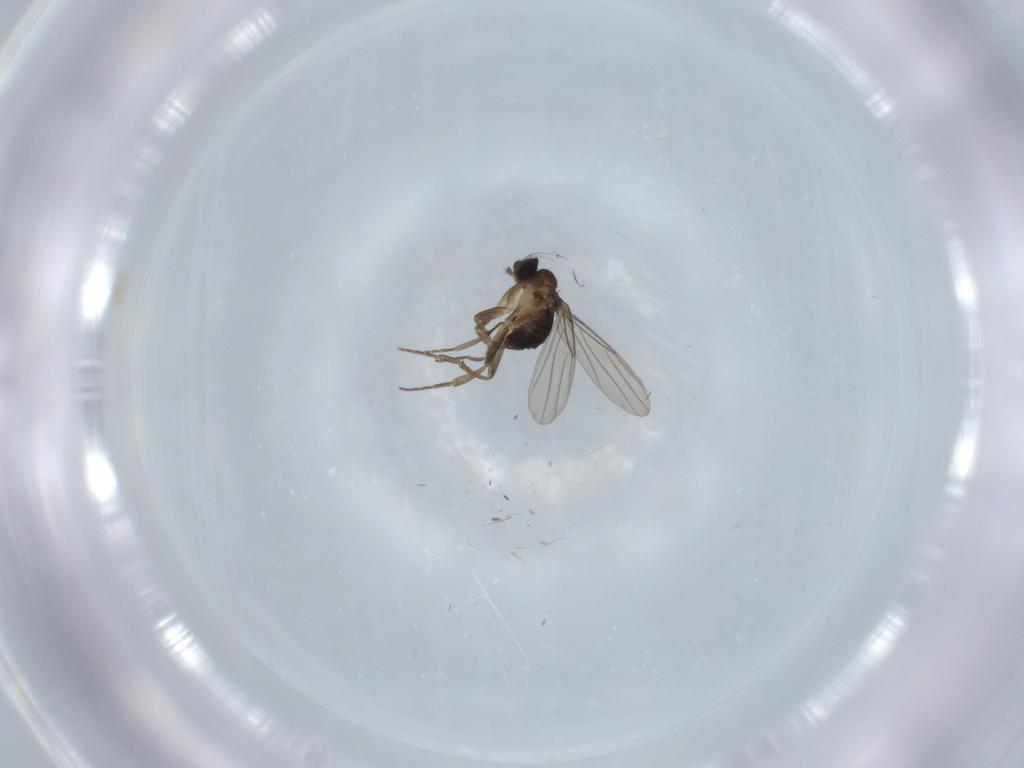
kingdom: Animalia
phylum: Arthropoda
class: Insecta
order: Diptera
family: Phoridae
